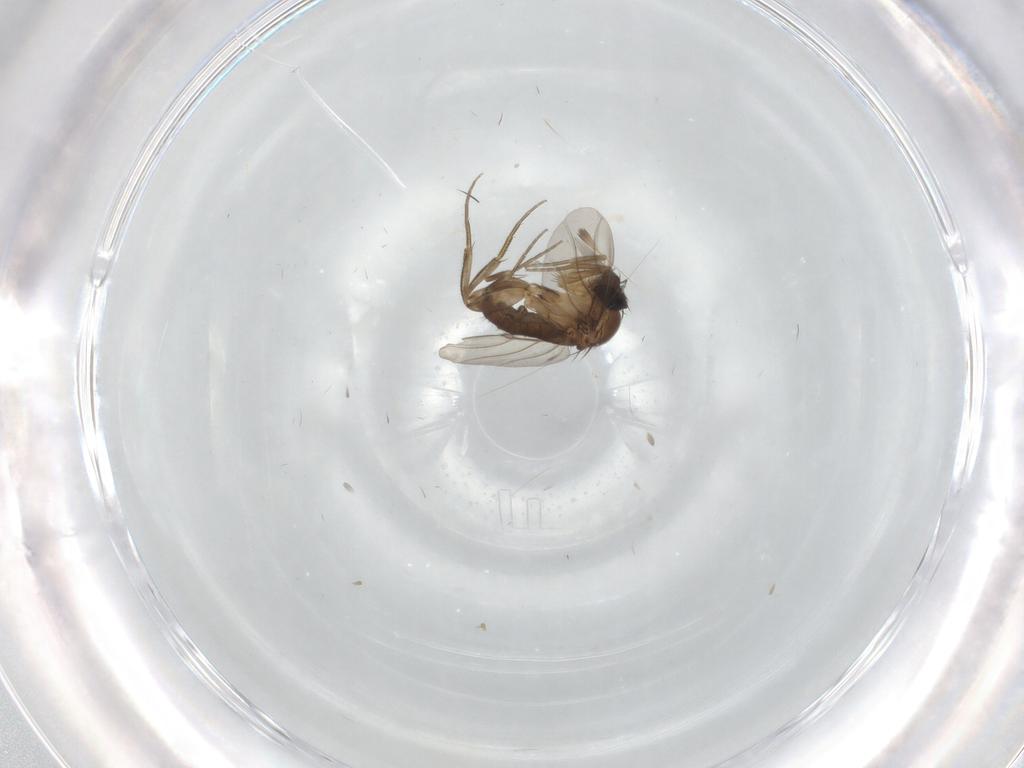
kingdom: Animalia
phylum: Arthropoda
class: Insecta
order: Diptera
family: Phoridae
